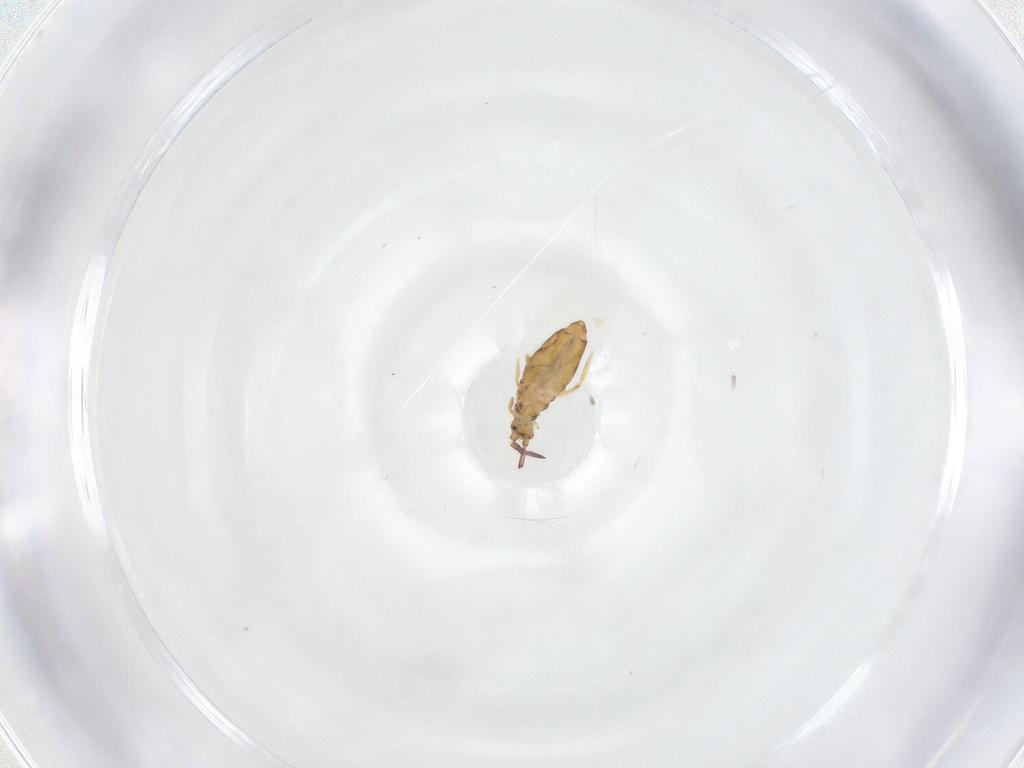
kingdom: Animalia
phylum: Arthropoda
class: Collembola
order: Entomobryomorpha
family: Entomobryidae
